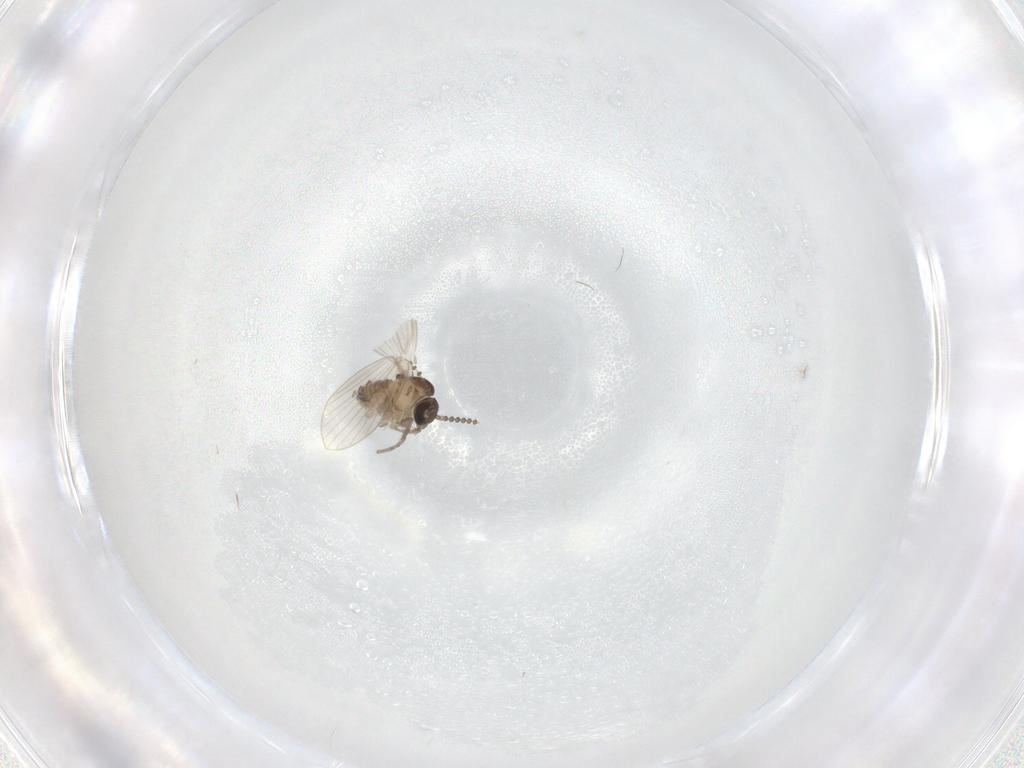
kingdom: Animalia
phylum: Arthropoda
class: Insecta
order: Diptera
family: Psychodidae
